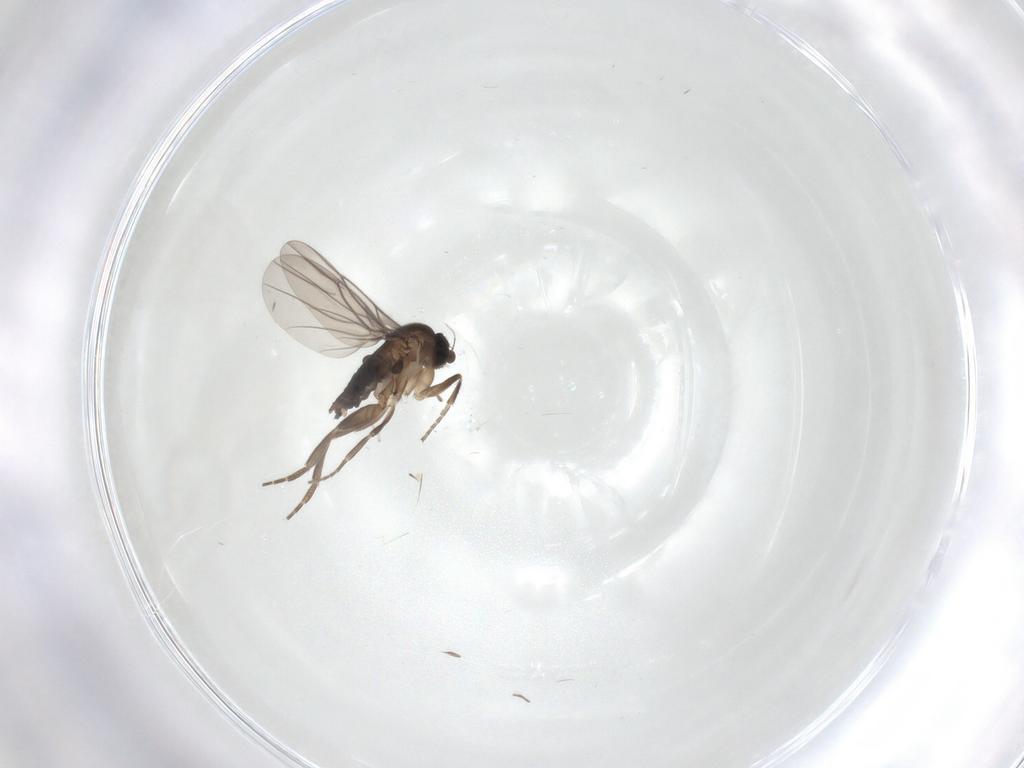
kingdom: Animalia
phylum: Arthropoda
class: Insecta
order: Diptera
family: Phoridae
